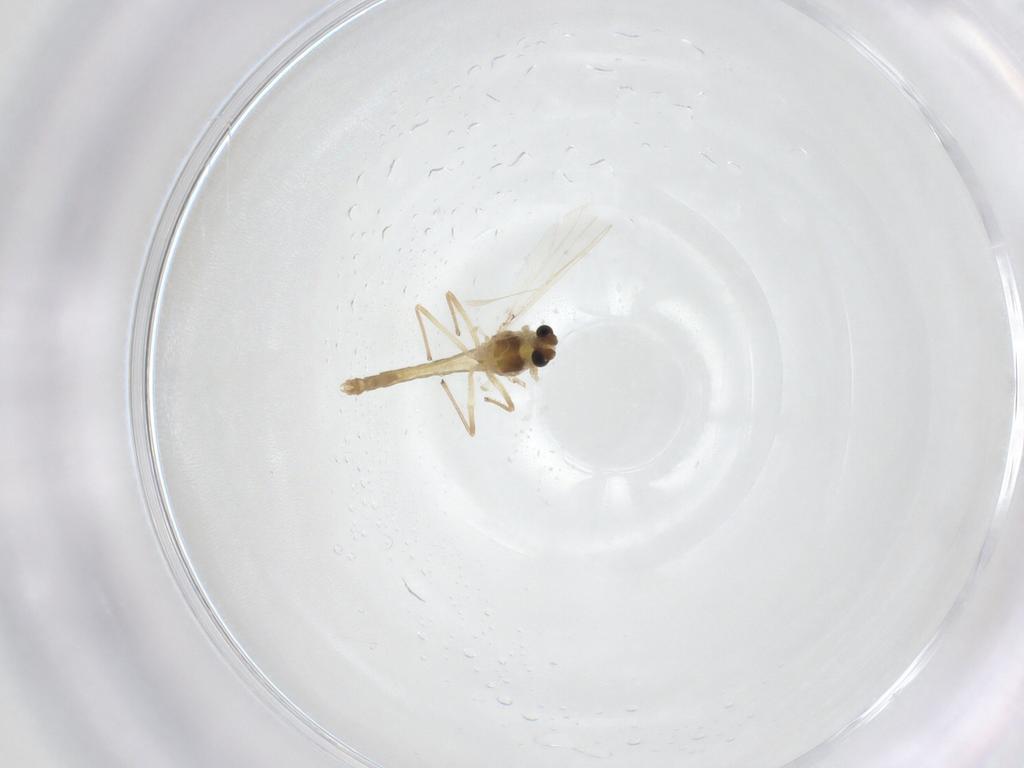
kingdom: Animalia
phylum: Arthropoda
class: Insecta
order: Diptera
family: Chironomidae
